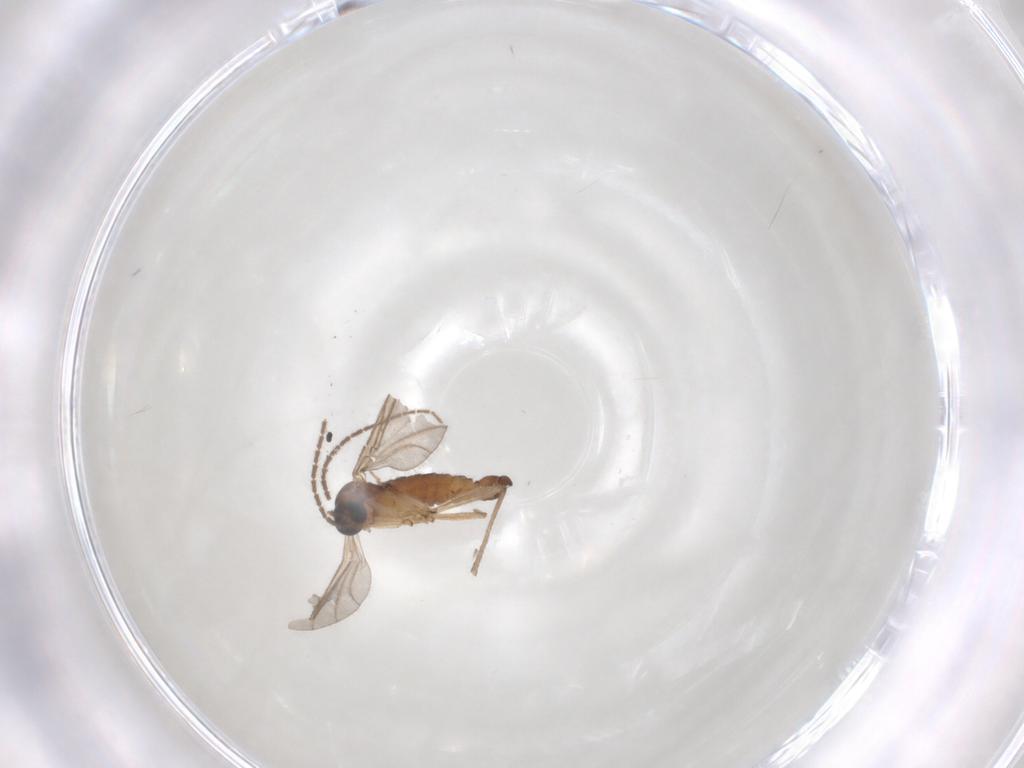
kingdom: Animalia
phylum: Arthropoda
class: Insecta
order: Diptera
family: Sciaridae
